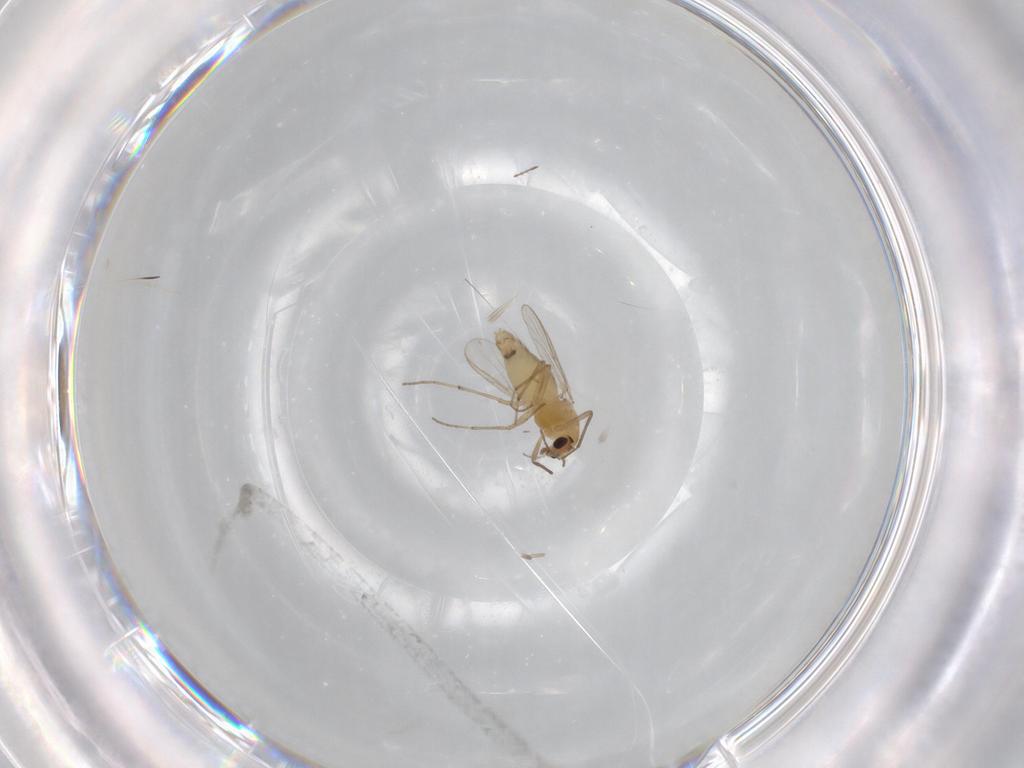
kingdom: Animalia
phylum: Arthropoda
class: Insecta
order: Diptera
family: Chironomidae
